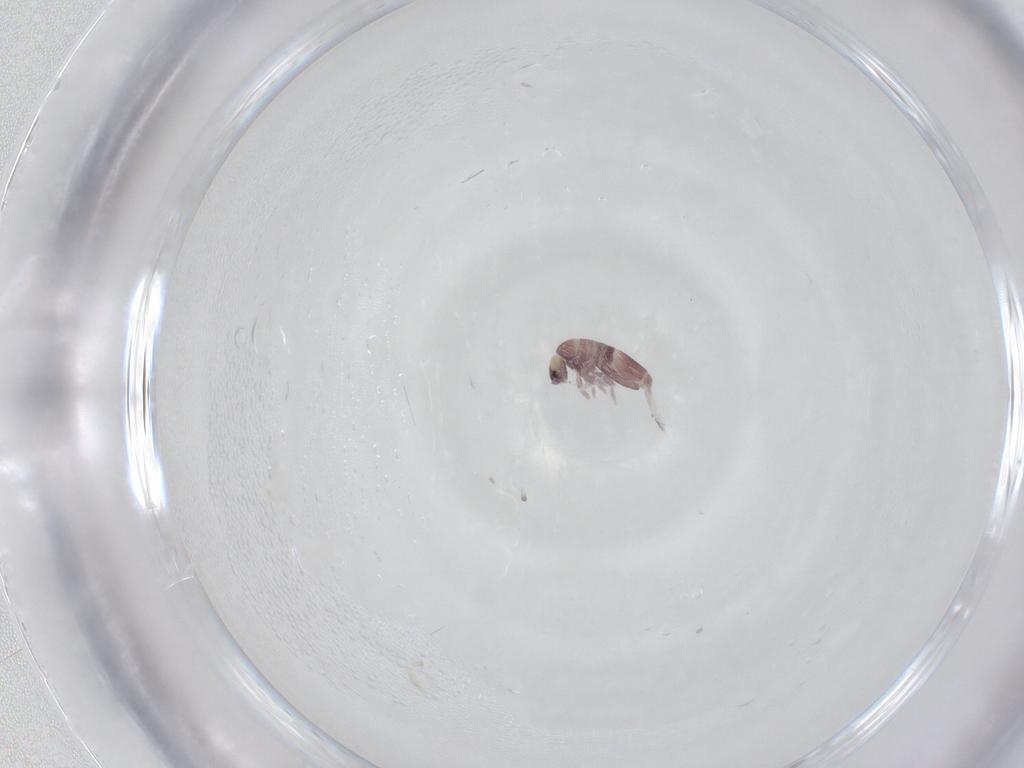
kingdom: Animalia
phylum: Arthropoda
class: Collembola
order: Entomobryomorpha
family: Entomobryidae
